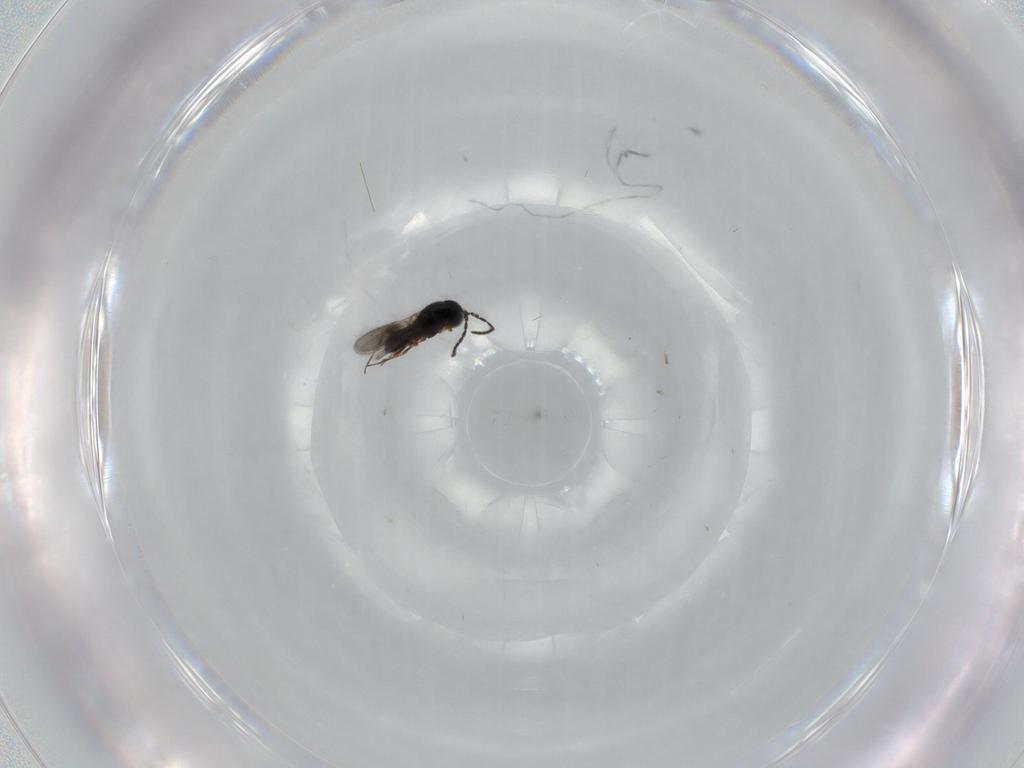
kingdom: Animalia
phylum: Arthropoda
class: Insecta
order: Hymenoptera
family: Scelionidae
